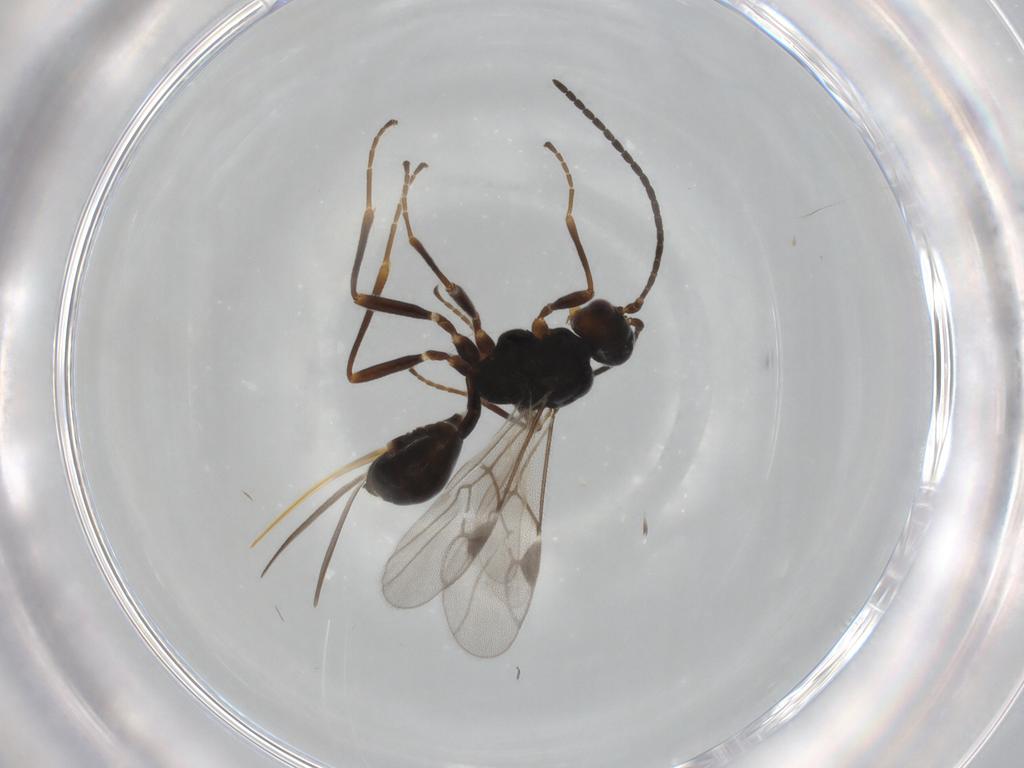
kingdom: Animalia
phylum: Arthropoda
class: Insecta
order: Hymenoptera
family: Braconidae
